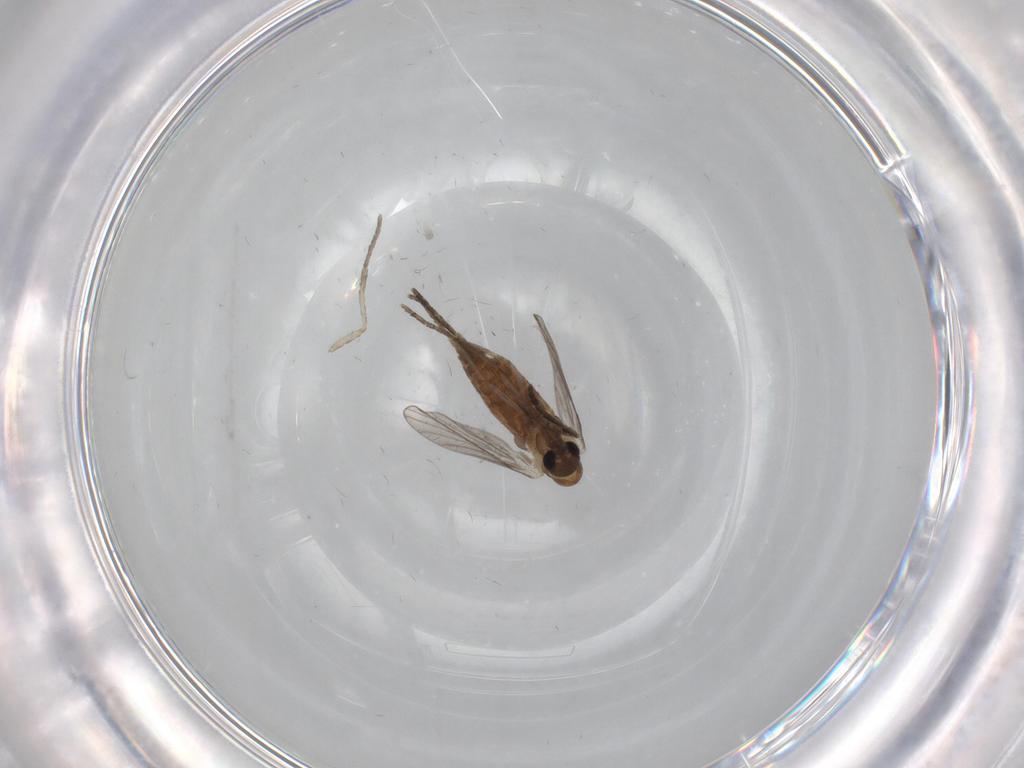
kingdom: Animalia
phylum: Arthropoda
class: Insecta
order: Diptera
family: Psychodidae
